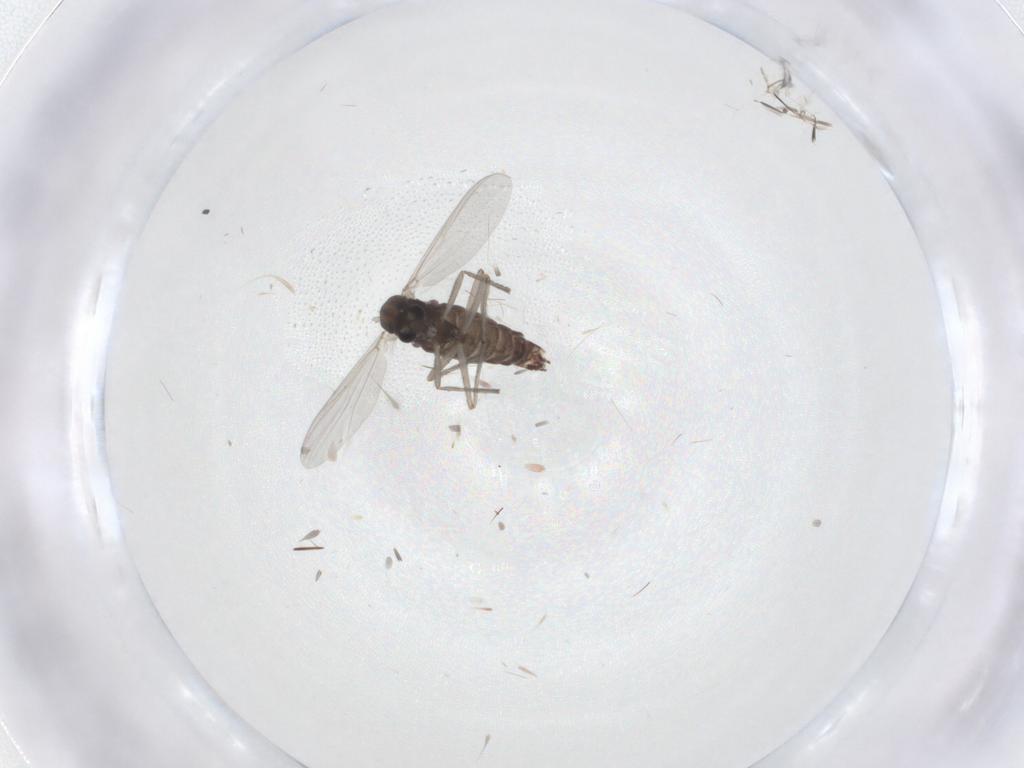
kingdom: Animalia
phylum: Arthropoda
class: Insecta
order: Diptera
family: Chironomidae
